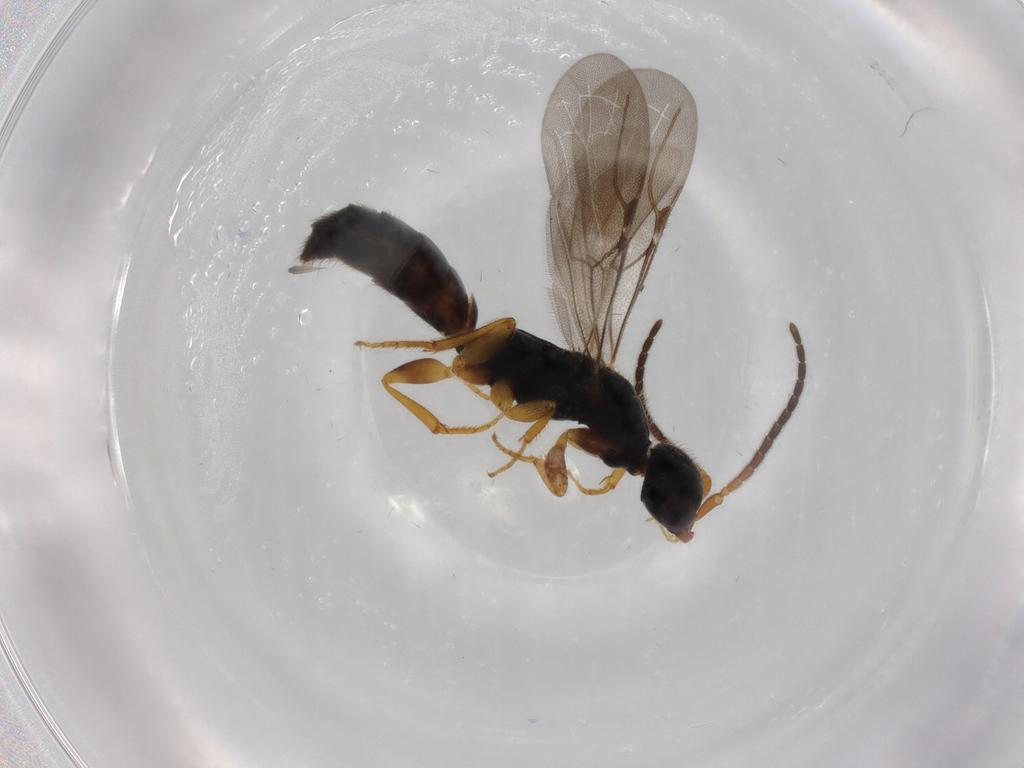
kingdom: Animalia
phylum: Arthropoda
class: Insecta
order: Hymenoptera
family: Bethylidae
